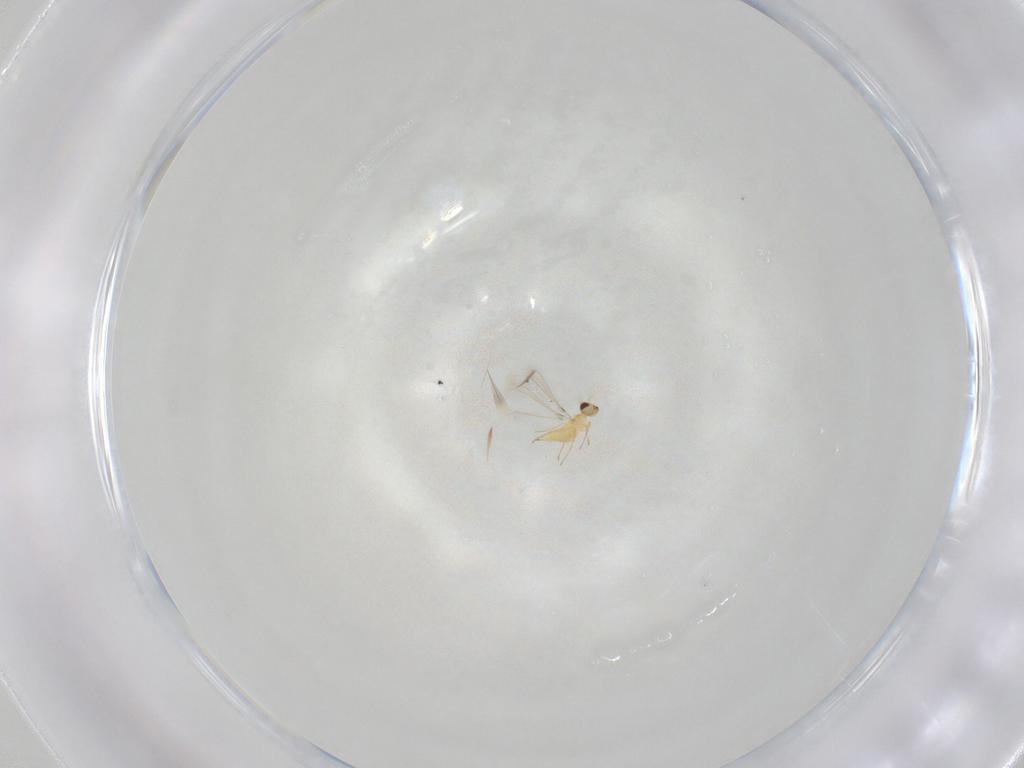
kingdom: Animalia
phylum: Arthropoda
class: Insecta
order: Hymenoptera
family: Mymaridae
